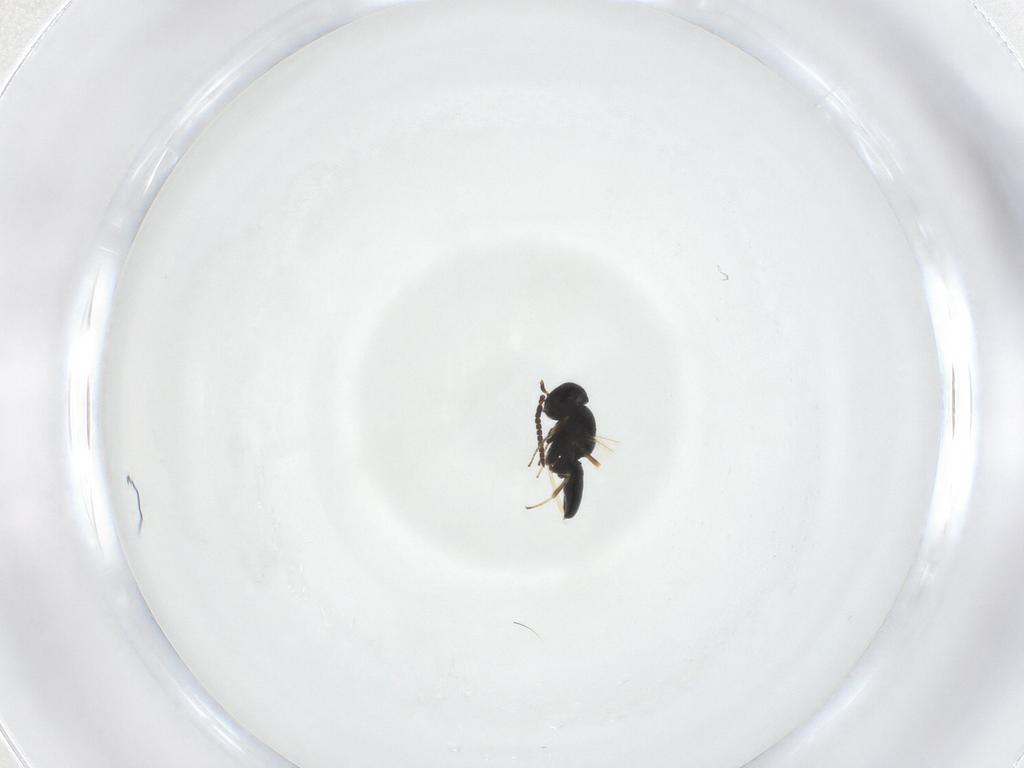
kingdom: Animalia
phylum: Arthropoda
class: Insecta
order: Hymenoptera
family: Scelionidae
